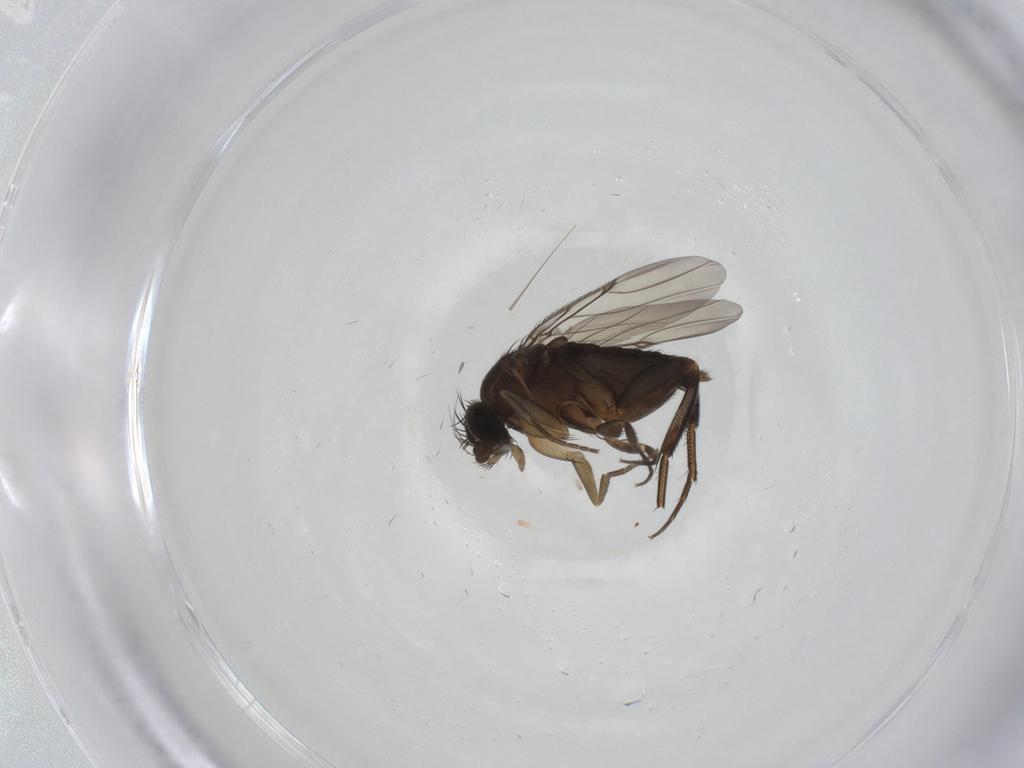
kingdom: Animalia
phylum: Arthropoda
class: Insecta
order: Diptera
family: Phoridae
